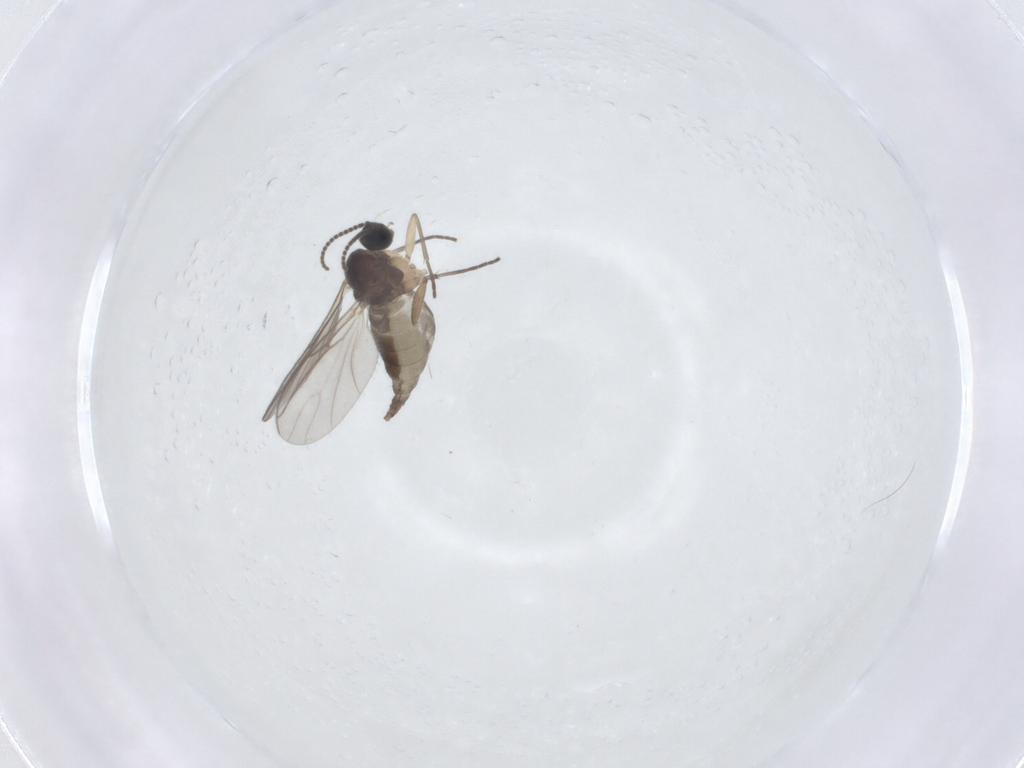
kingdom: Animalia
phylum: Arthropoda
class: Insecta
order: Diptera
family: Sciaridae
